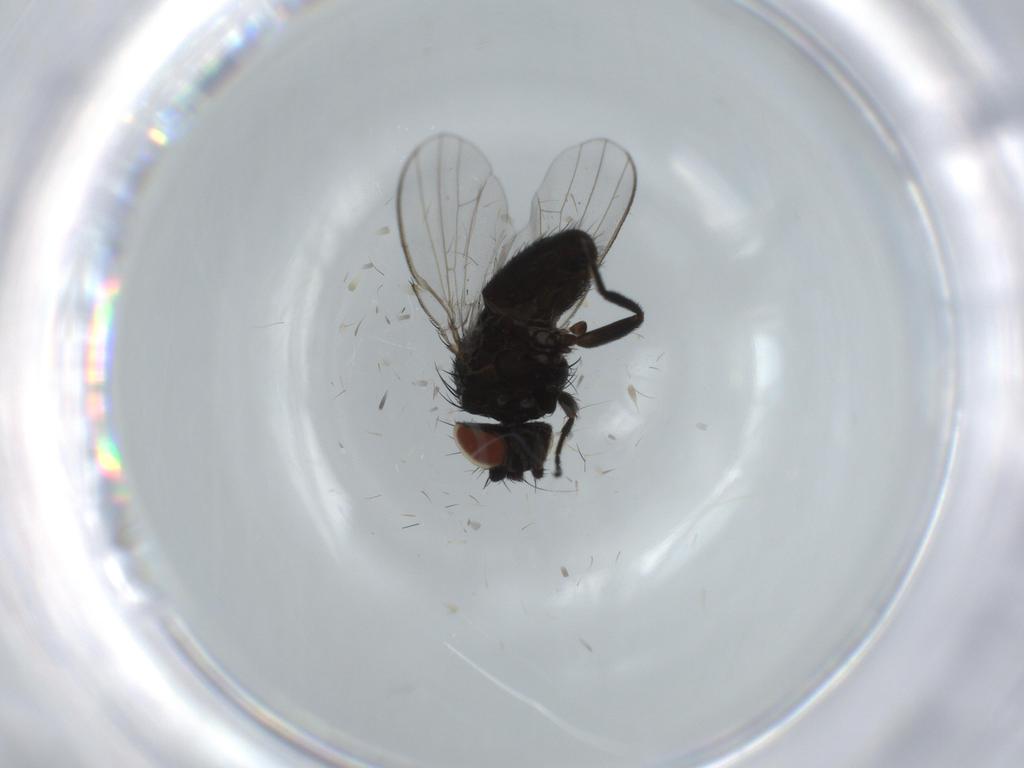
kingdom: Animalia
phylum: Arthropoda
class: Insecta
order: Diptera
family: Milichiidae
